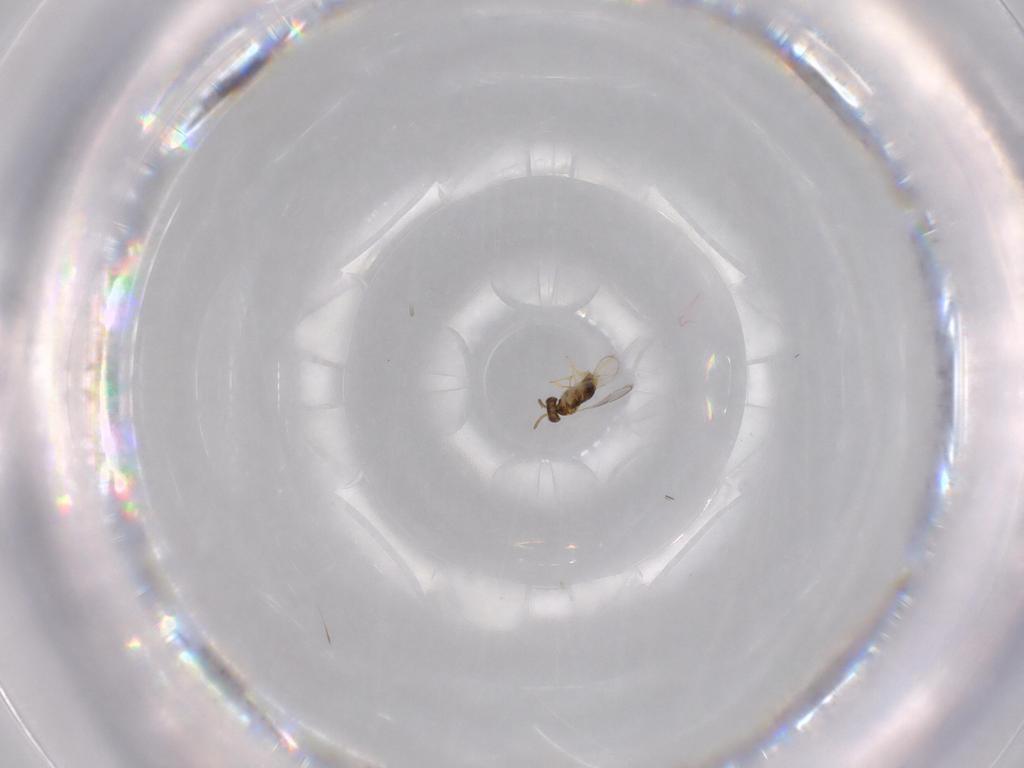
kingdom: Animalia
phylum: Arthropoda
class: Insecta
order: Hymenoptera
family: Aphelinidae
